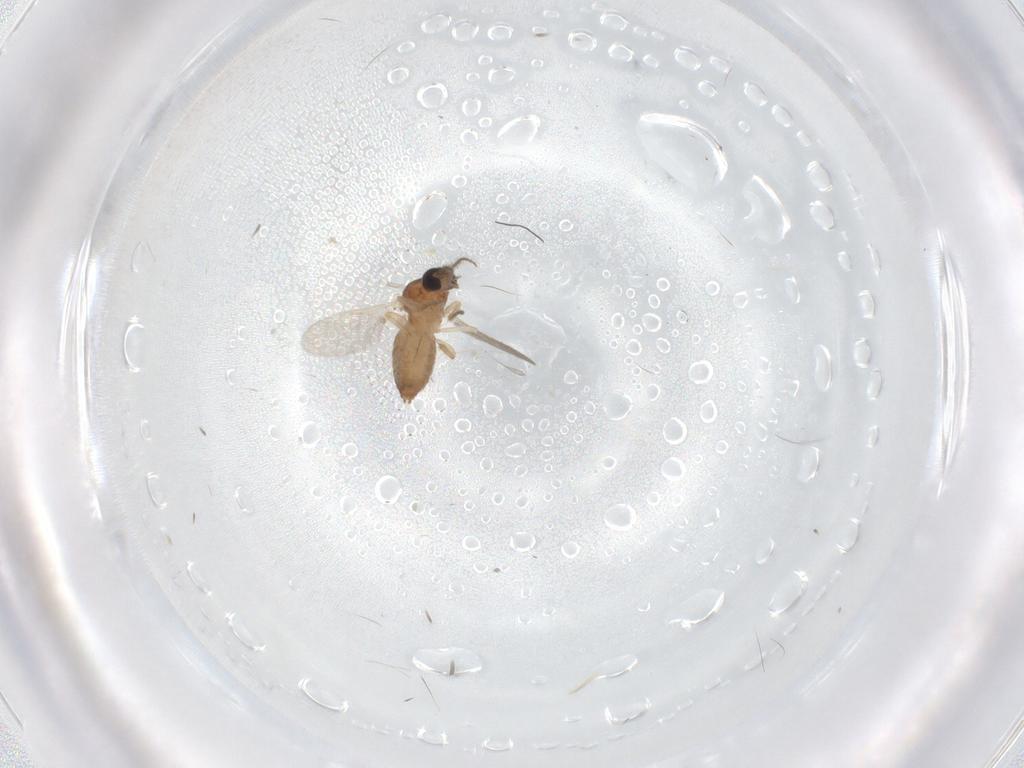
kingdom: Animalia
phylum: Arthropoda
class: Insecta
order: Diptera
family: Ceratopogonidae
